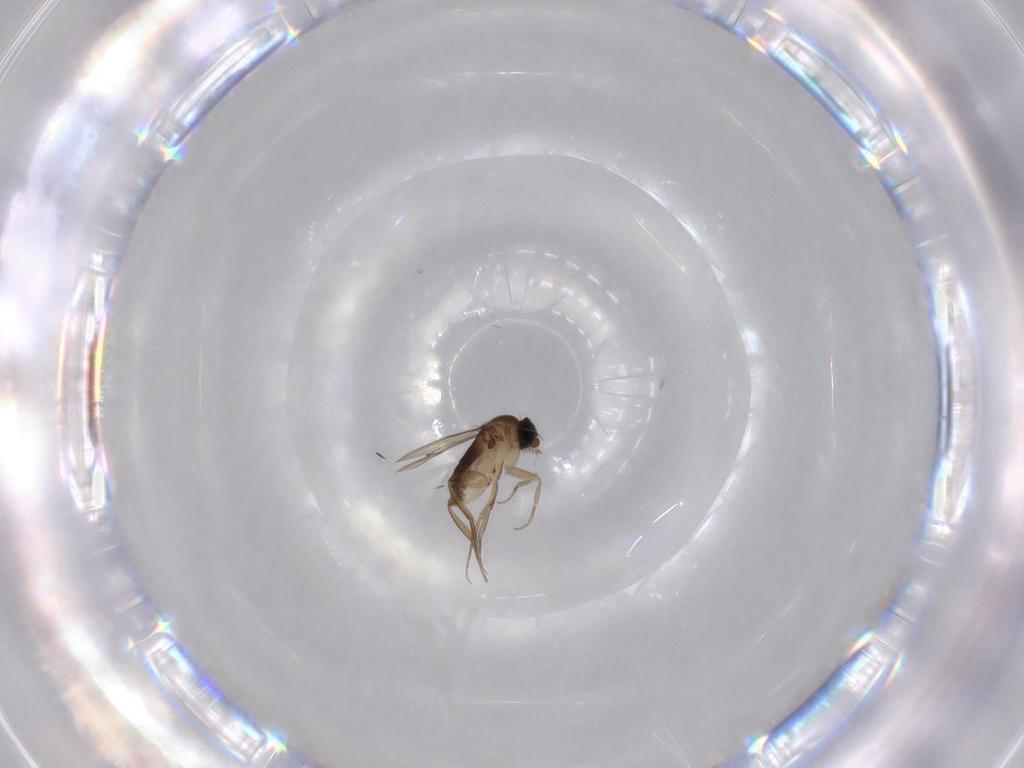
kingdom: Animalia
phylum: Arthropoda
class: Insecta
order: Diptera
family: Phoridae
